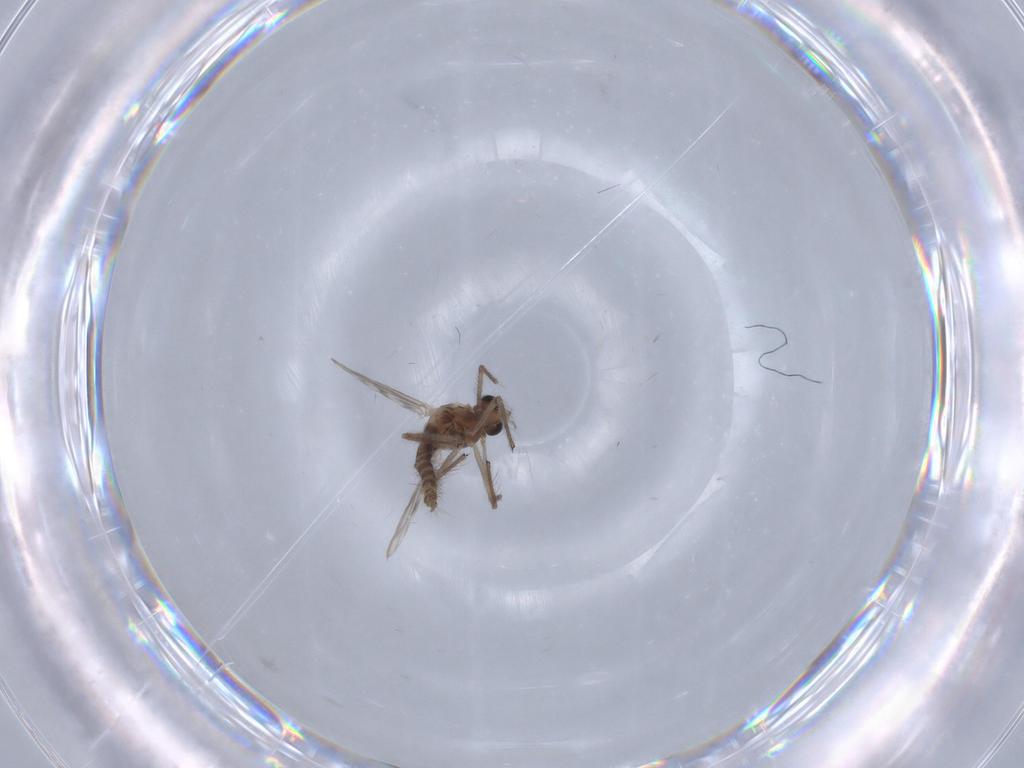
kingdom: Animalia
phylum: Arthropoda
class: Insecta
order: Diptera
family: Chironomidae
